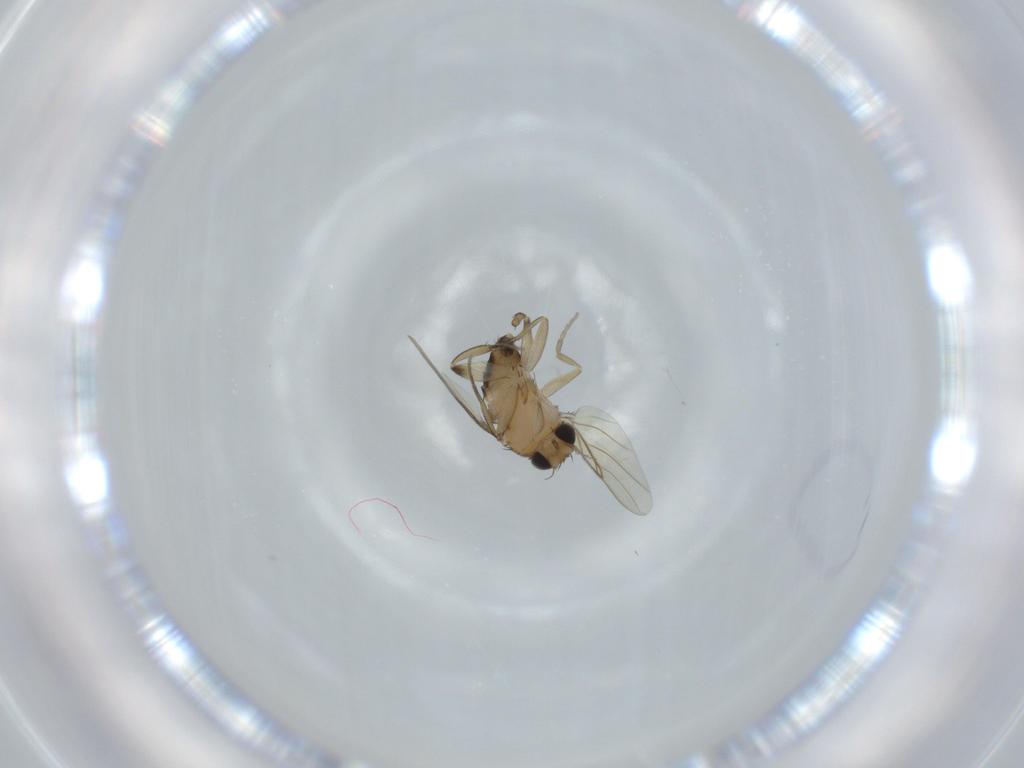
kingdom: Animalia
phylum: Arthropoda
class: Insecta
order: Diptera
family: Phoridae
